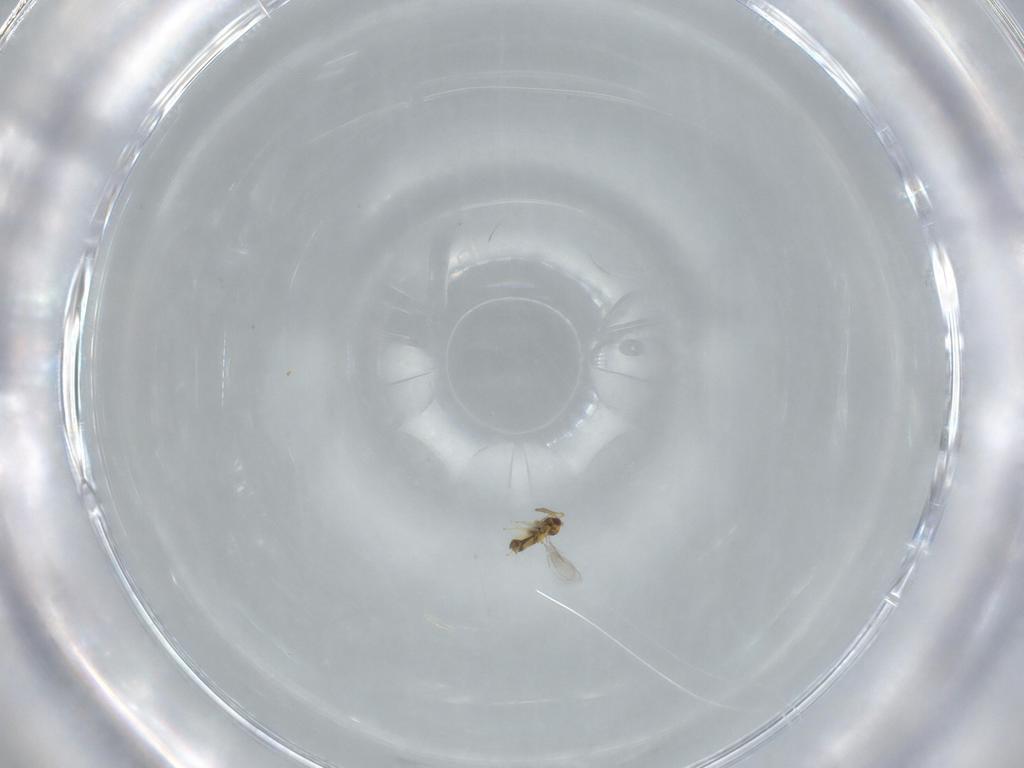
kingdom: Animalia
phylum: Arthropoda
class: Insecta
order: Hymenoptera
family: Aphelinidae
